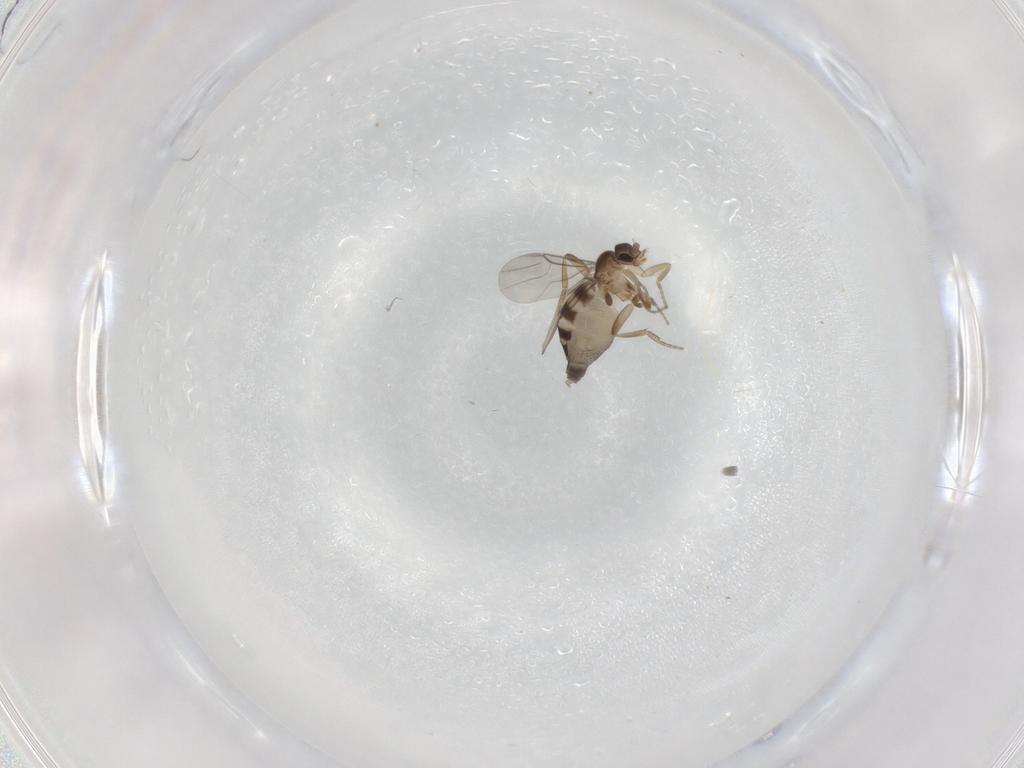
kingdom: Animalia
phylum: Arthropoda
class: Insecta
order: Diptera
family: Phoridae
